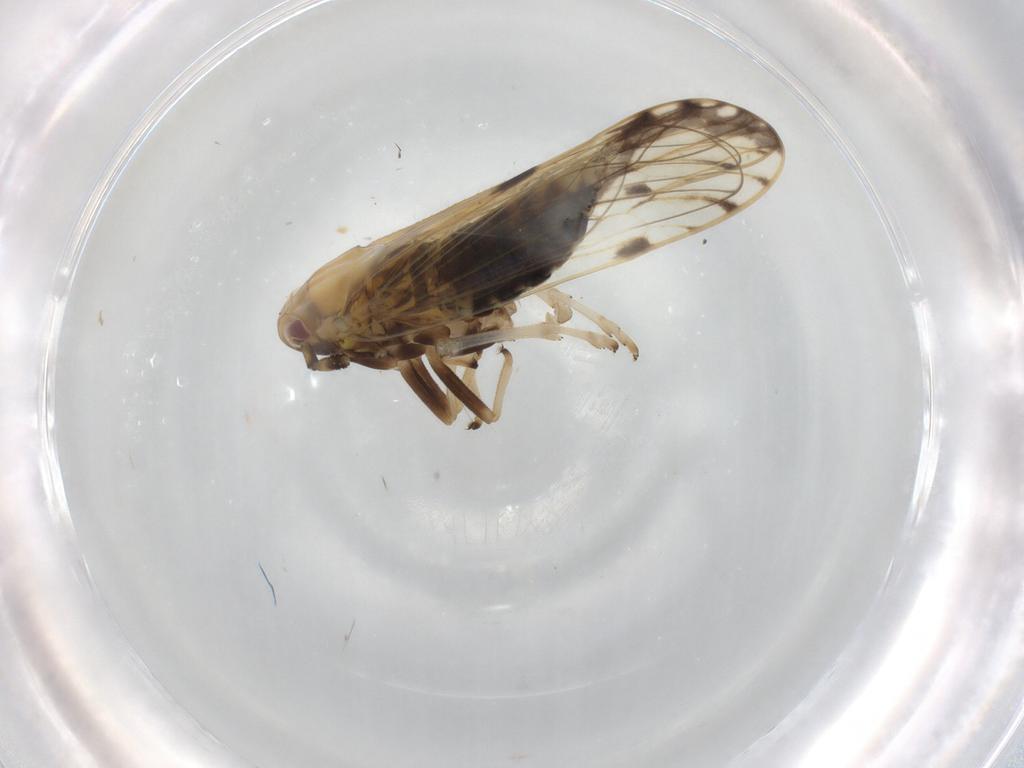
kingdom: Animalia
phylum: Arthropoda
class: Insecta
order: Hemiptera
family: Delphacidae
